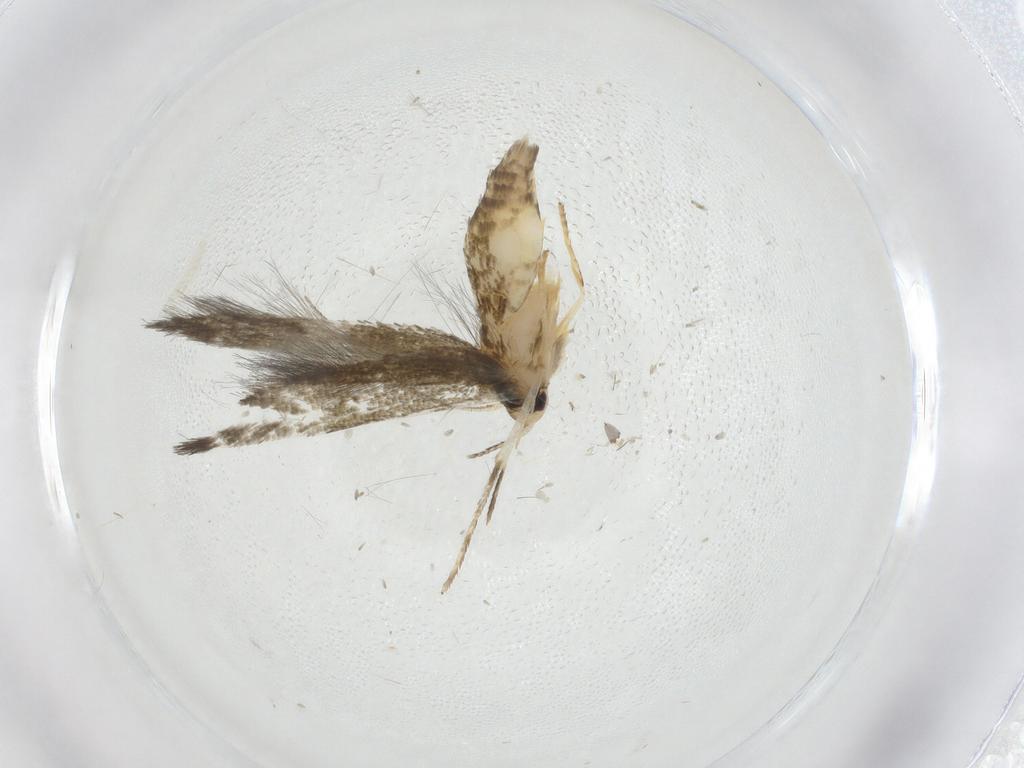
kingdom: Animalia
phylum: Arthropoda
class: Insecta
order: Lepidoptera
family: Stathmopodidae
